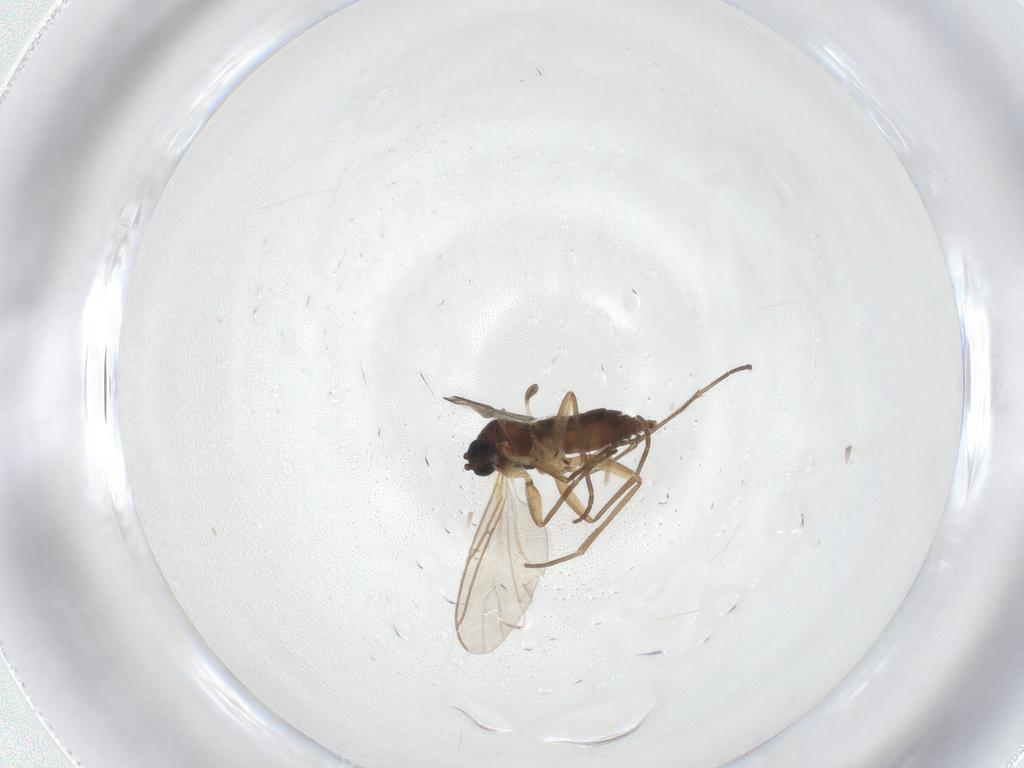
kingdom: Animalia
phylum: Arthropoda
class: Insecta
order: Diptera
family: Sciaridae
